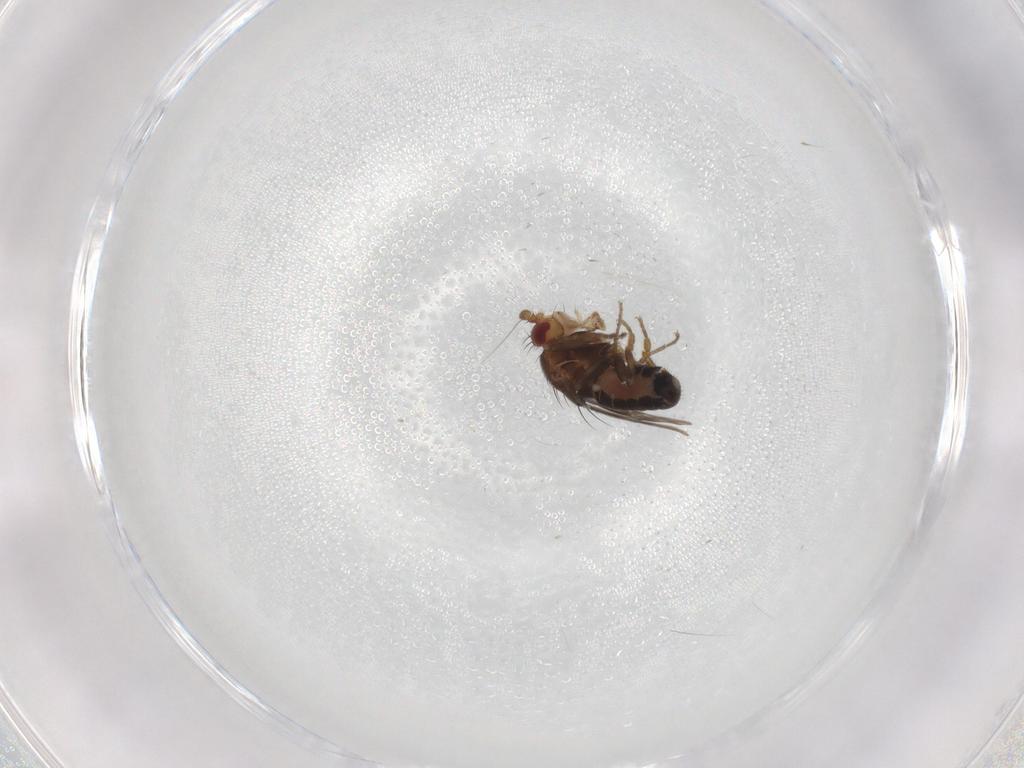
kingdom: Animalia
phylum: Arthropoda
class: Insecta
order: Diptera
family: Sphaeroceridae
